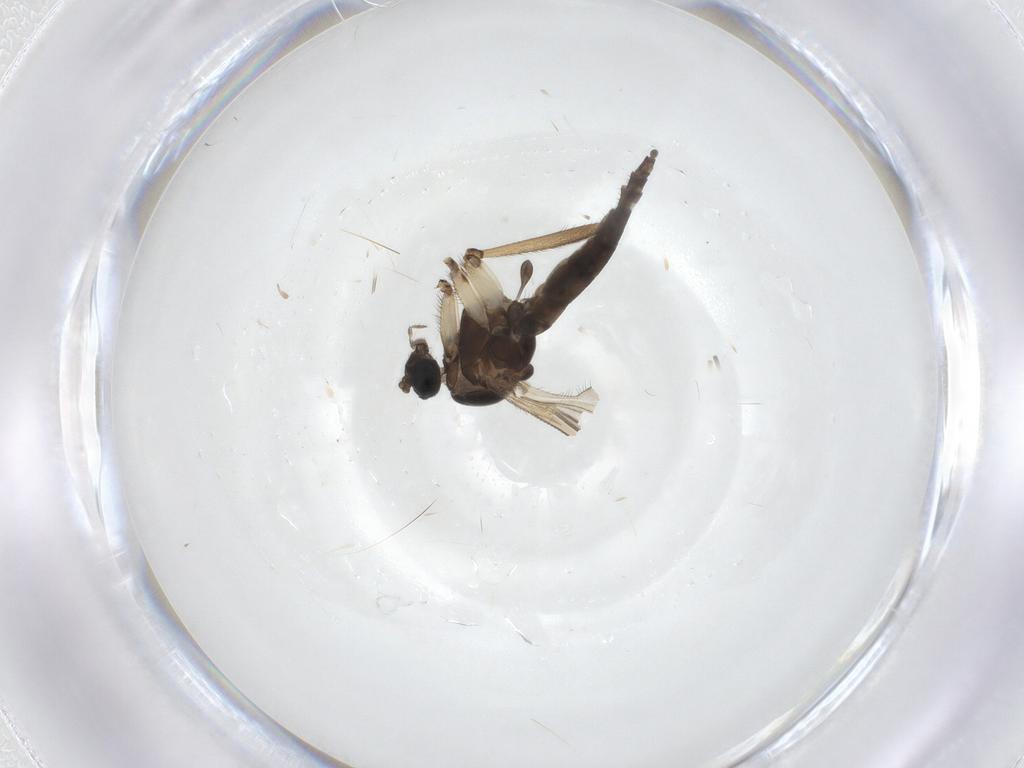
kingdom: Animalia
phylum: Arthropoda
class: Insecta
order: Diptera
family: Sciaridae
